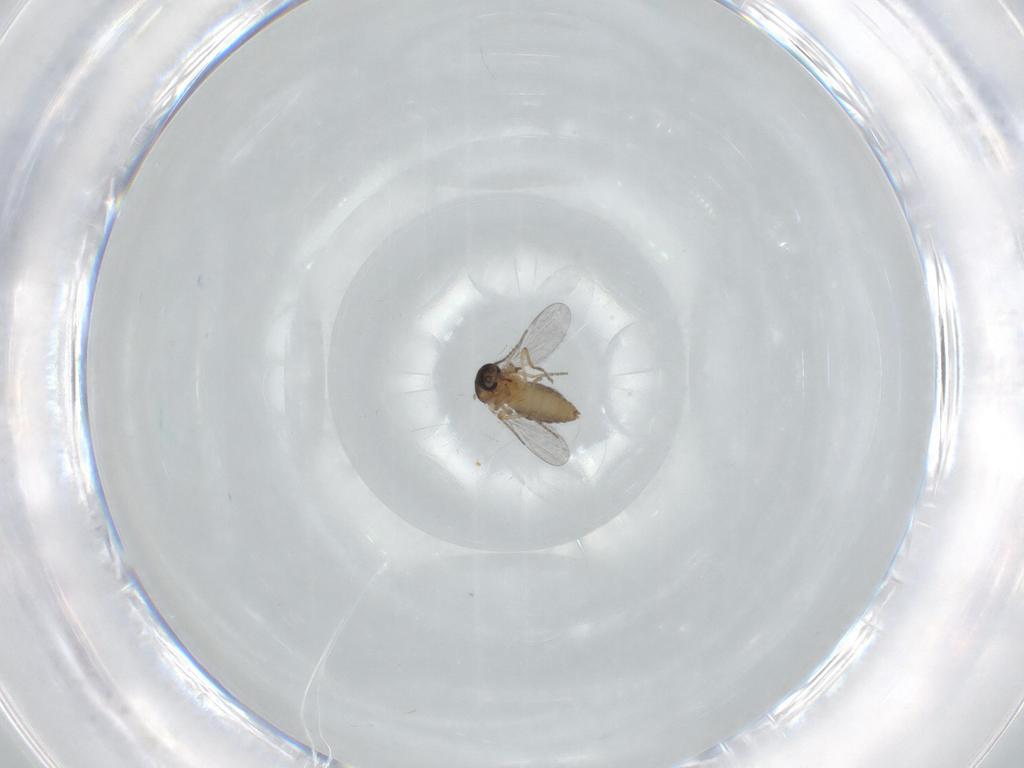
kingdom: Animalia
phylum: Arthropoda
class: Insecta
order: Diptera
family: Ceratopogonidae
